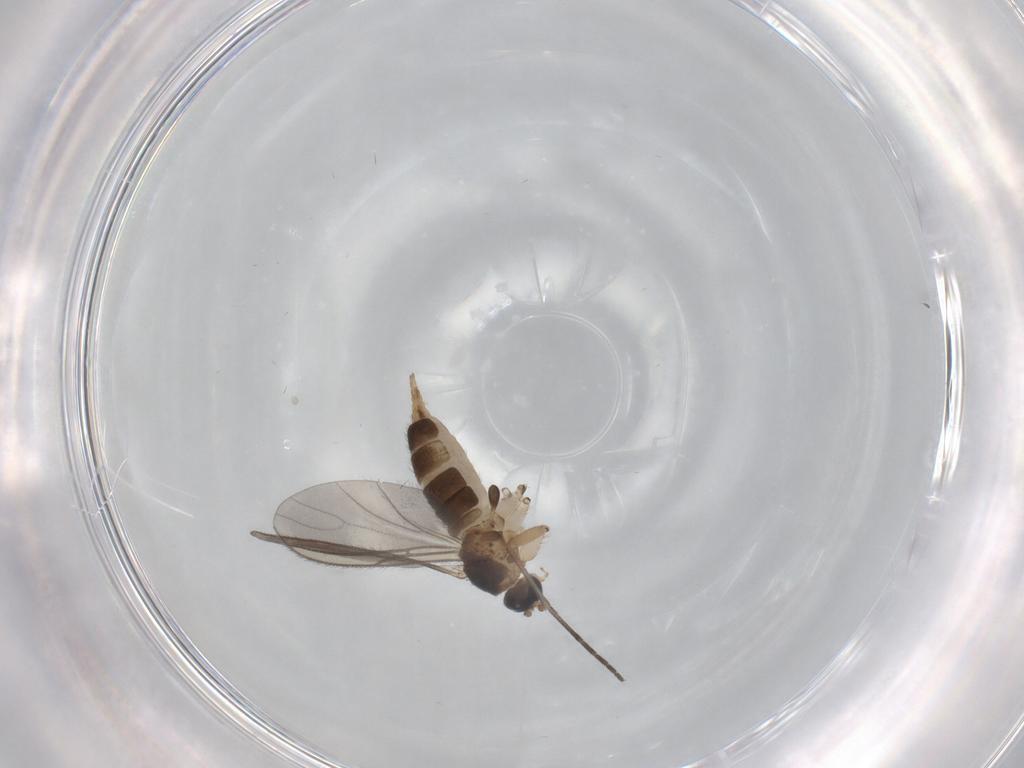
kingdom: Animalia
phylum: Arthropoda
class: Insecta
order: Diptera
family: Sciaridae
